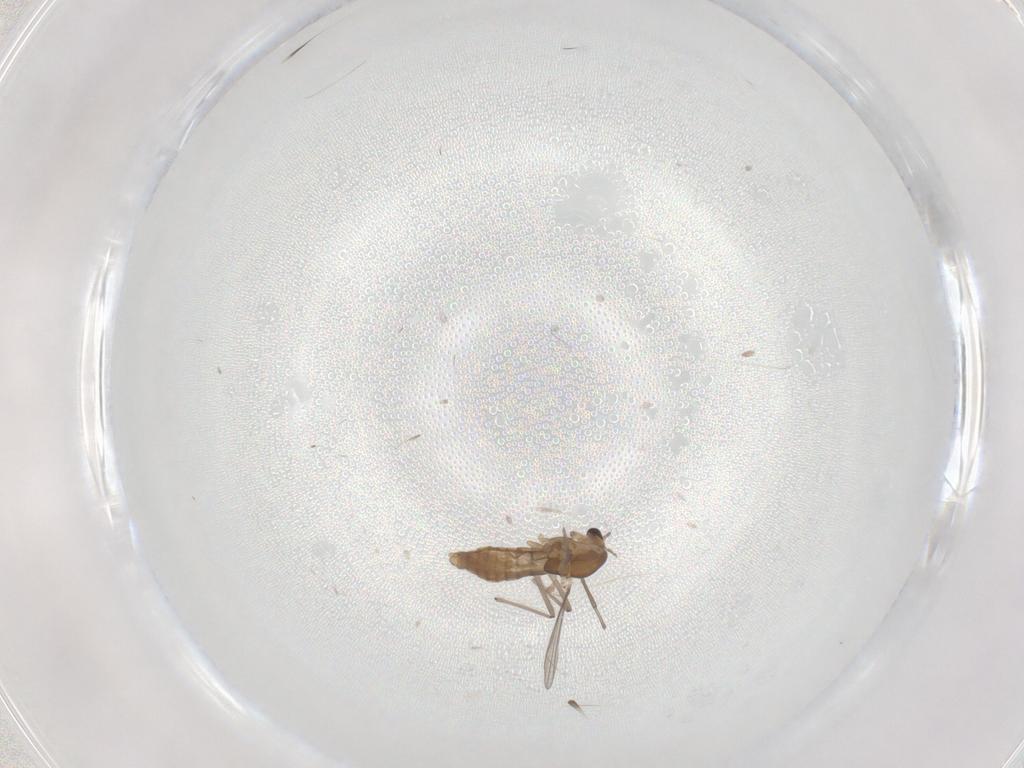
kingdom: Animalia
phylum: Arthropoda
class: Insecta
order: Diptera
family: Chironomidae
